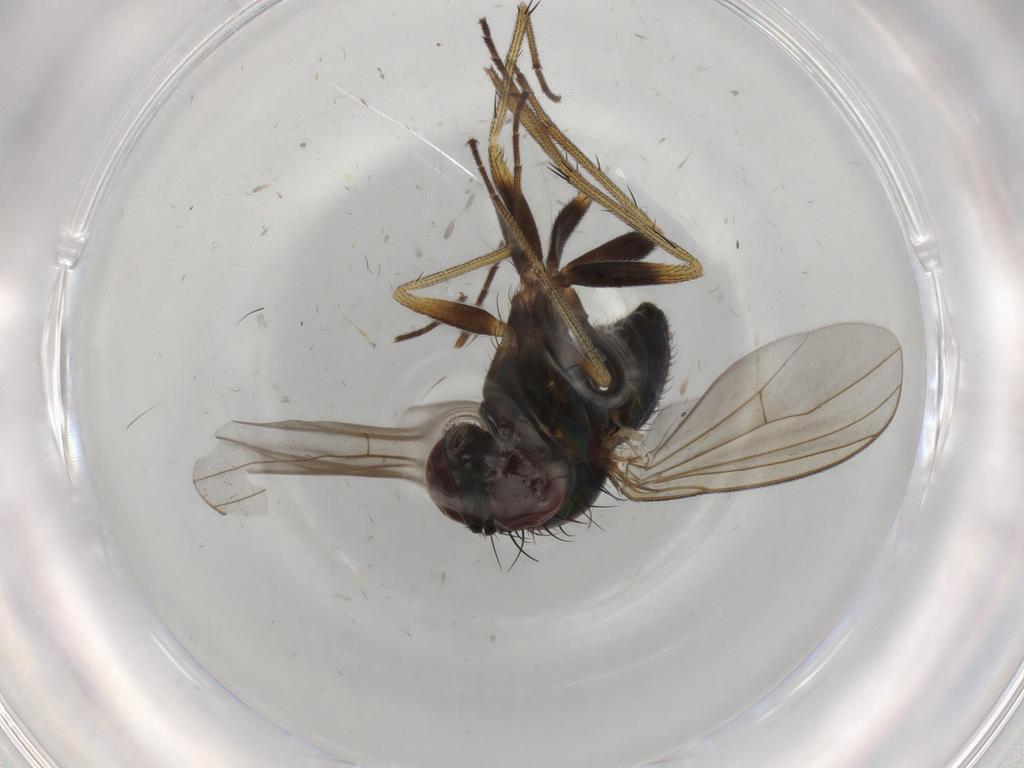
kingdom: Animalia
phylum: Arthropoda
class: Insecta
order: Diptera
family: Dolichopodidae
